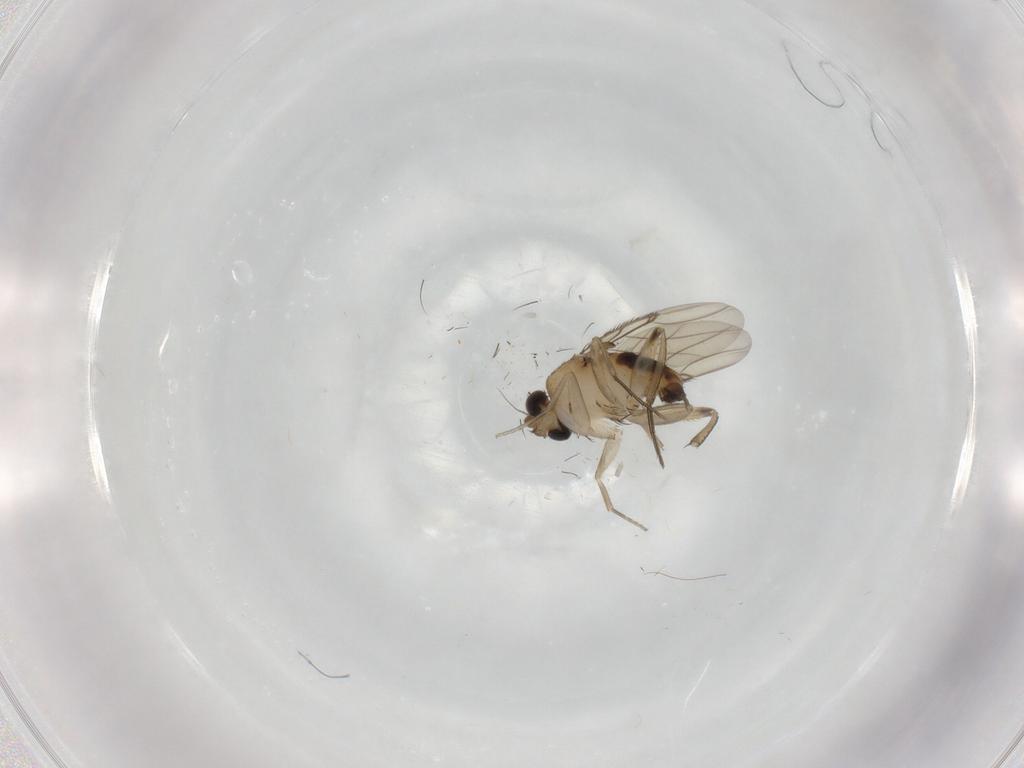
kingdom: Animalia
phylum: Arthropoda
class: Insecta
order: Diptera
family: Phoridae
